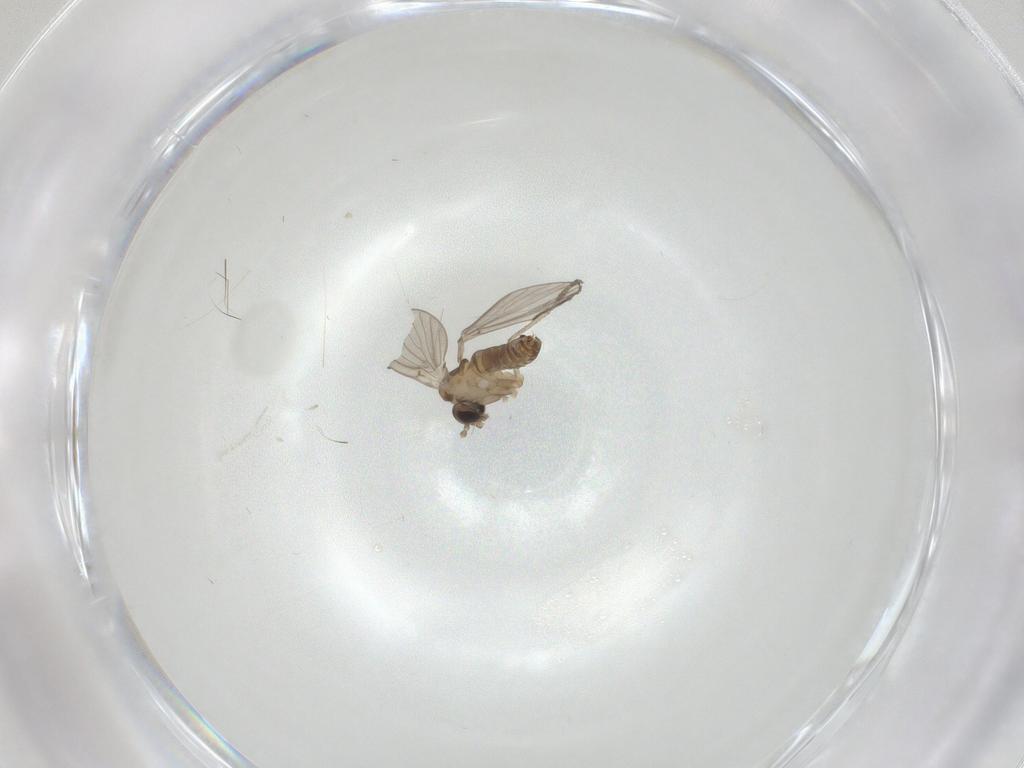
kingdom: Animalia
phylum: Arthropoda
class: Insecta
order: Diptera
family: Psychodidae
